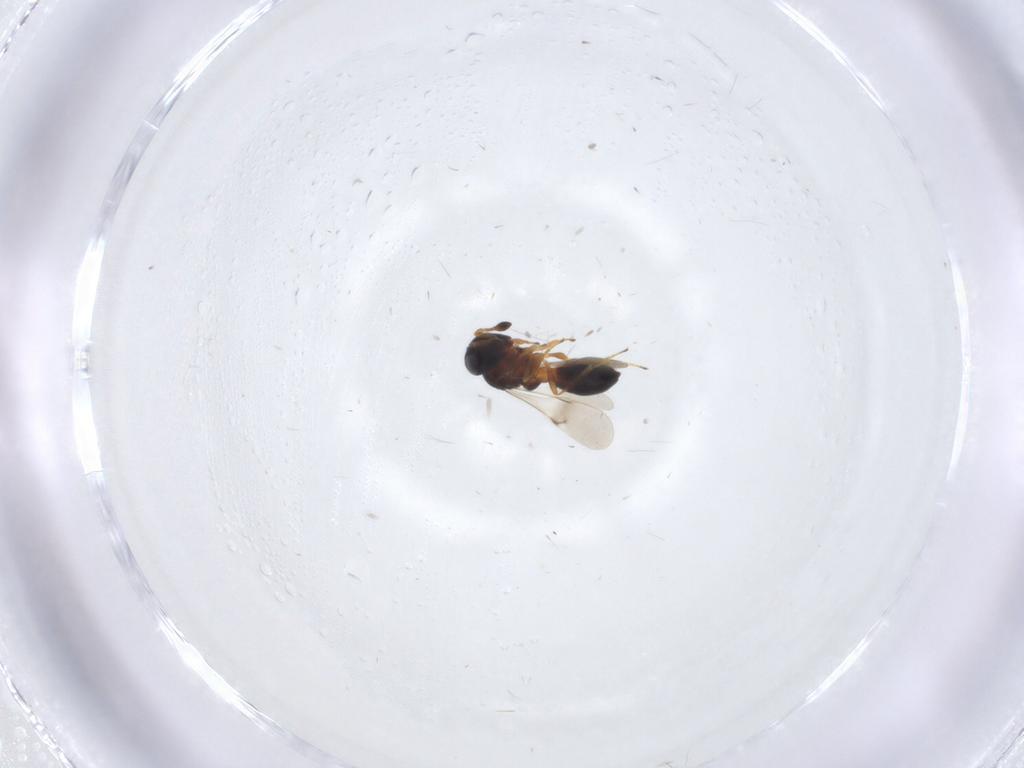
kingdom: Animalia
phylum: Arthropoda
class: Insecta
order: Hymenoptera
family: Scelionidae
